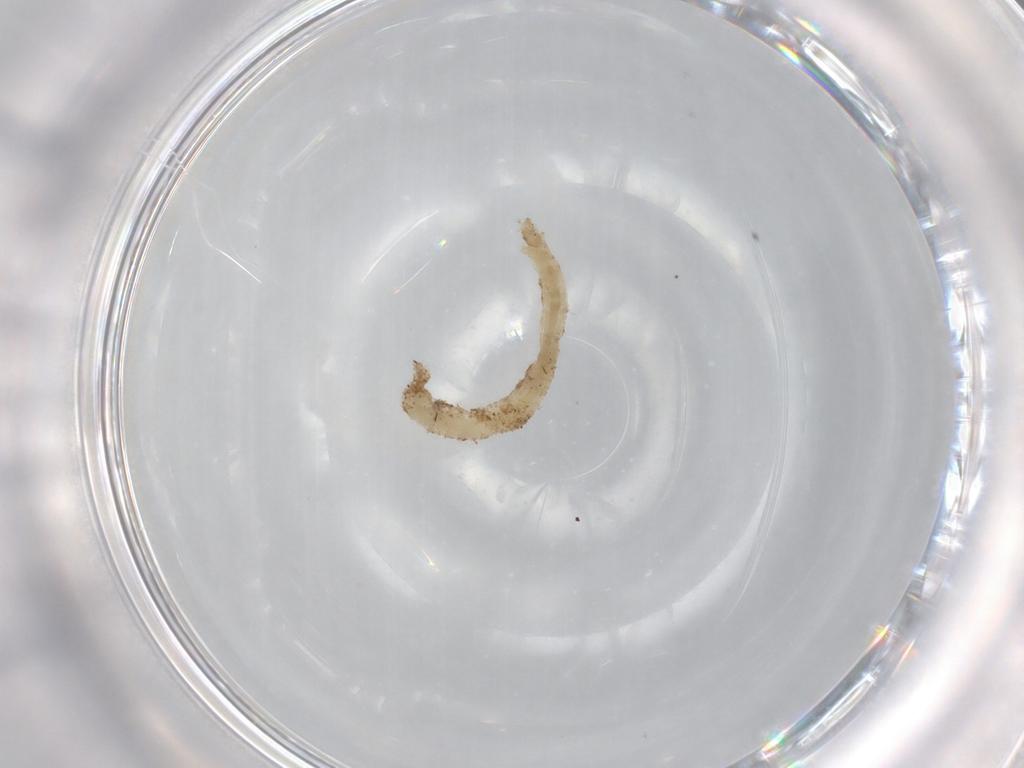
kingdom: Animalia
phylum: Arthropoda
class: Insecta
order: Diptera
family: Chironomidae
